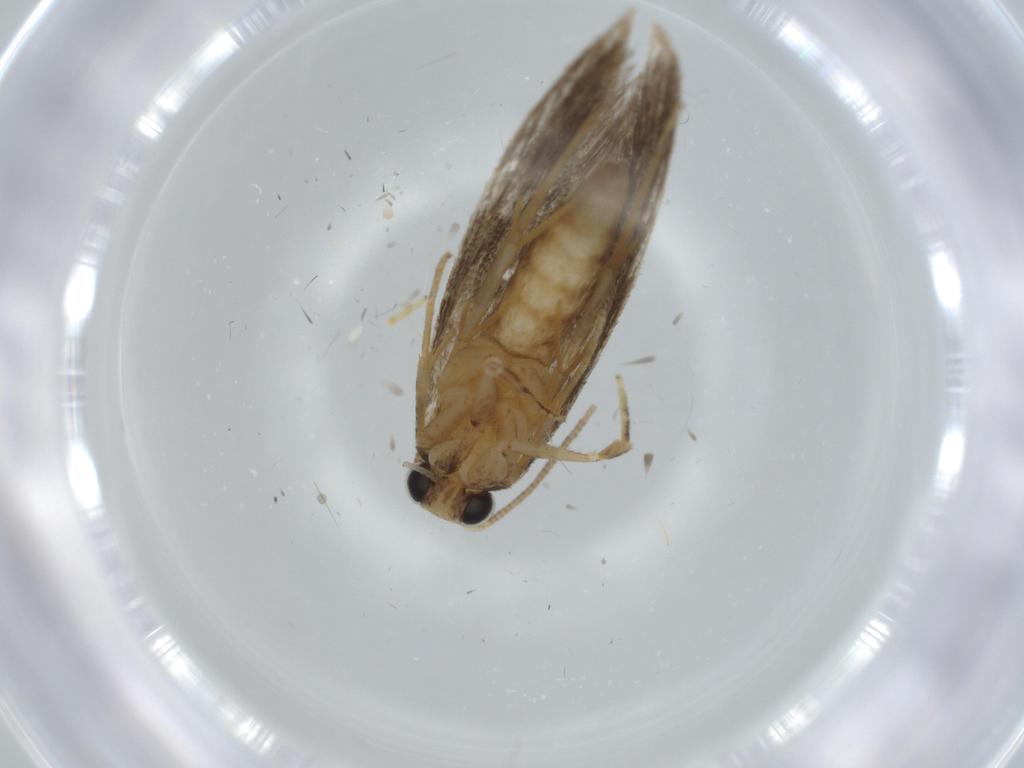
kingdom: Animalia
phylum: Arthropoda
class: Insecta
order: Lepidoptera
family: Tineidae
